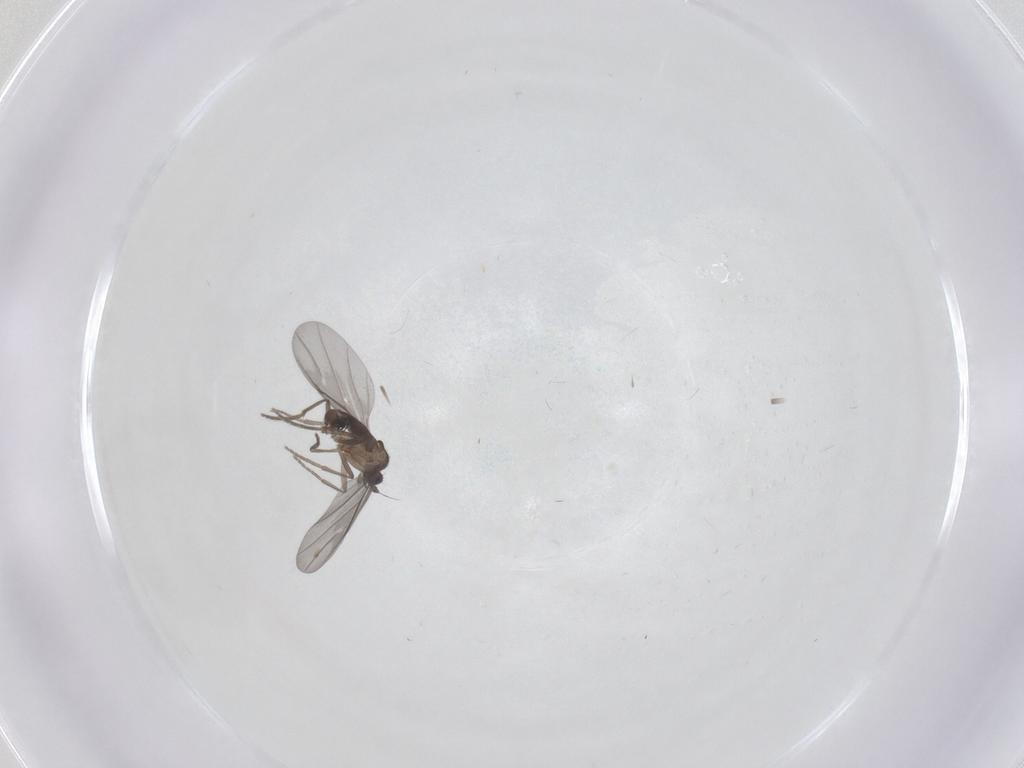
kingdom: Animalia
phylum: Arthropoda
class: Insecta
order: Diptera
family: Phoridae
